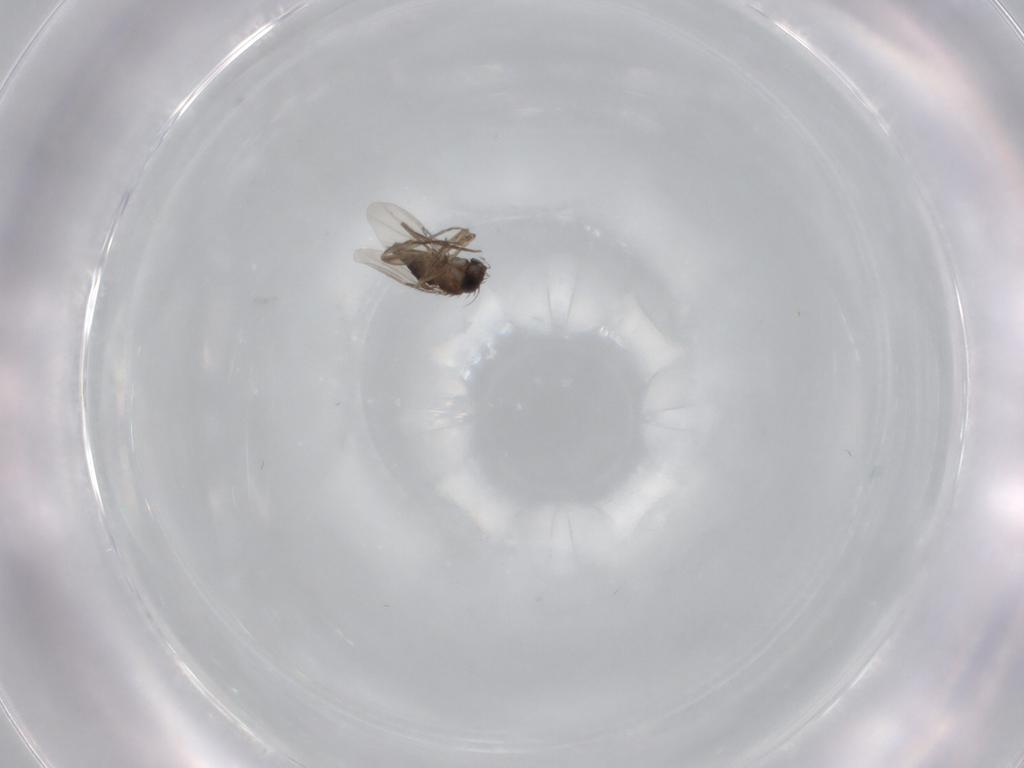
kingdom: Animalia
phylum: Arthropoda
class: Insecta
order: Diptera
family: Phoridae
